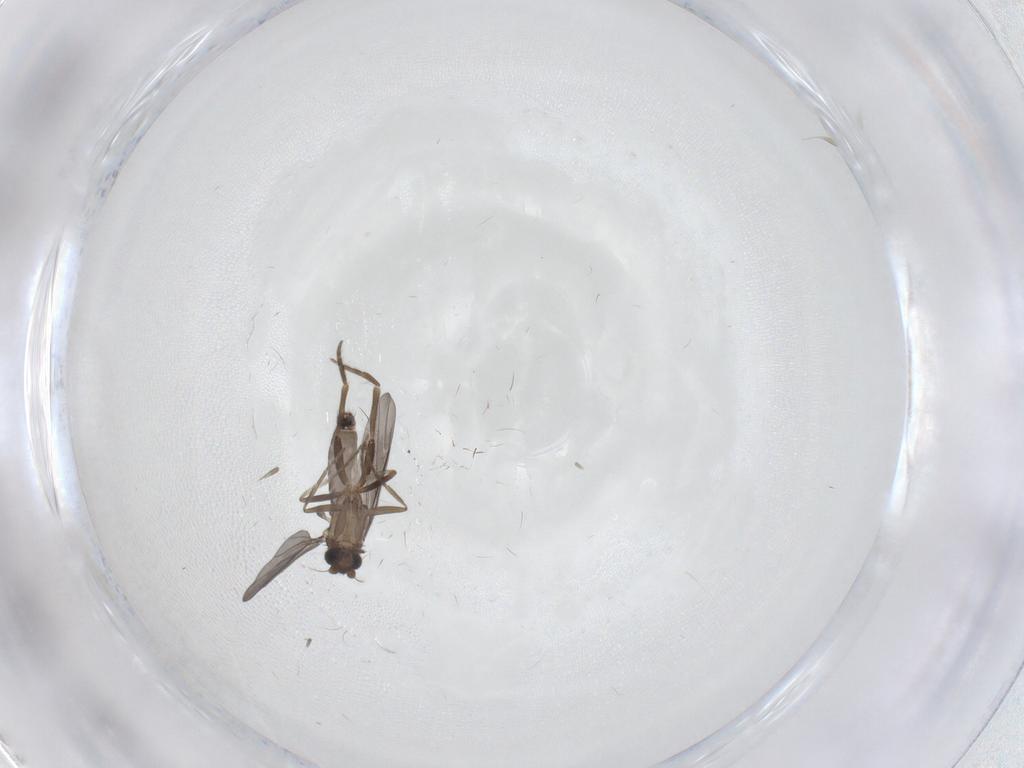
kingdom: Animalia
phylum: Arthropoda
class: Insecta
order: Diptera
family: Phoridae
